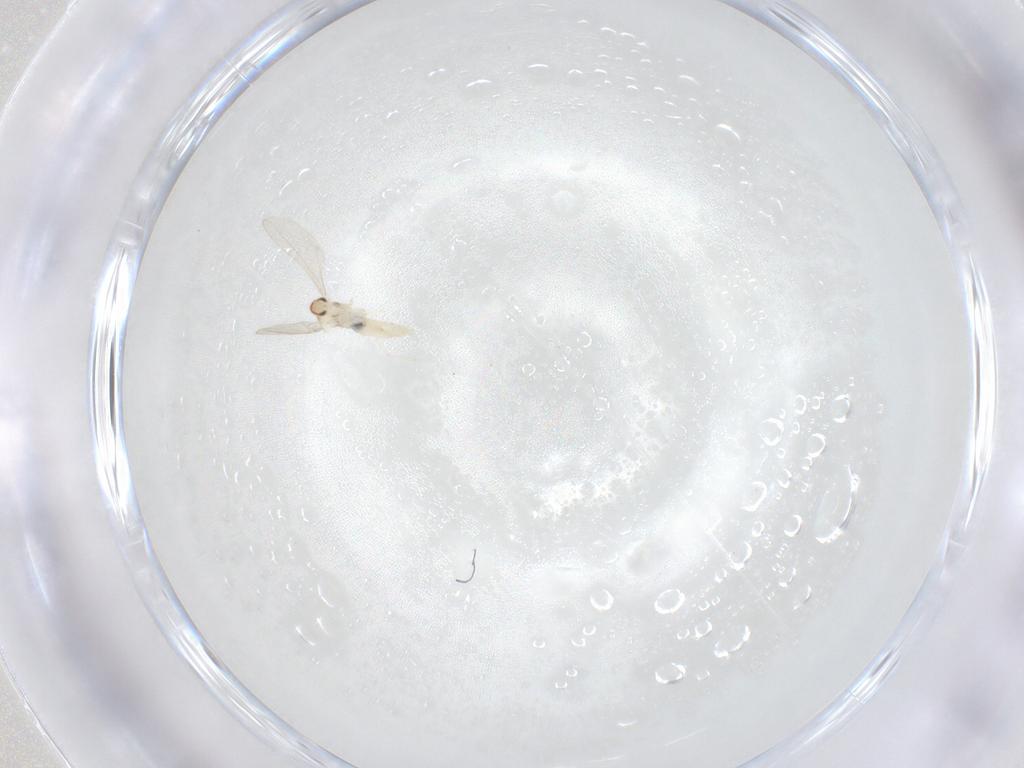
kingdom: Animalia
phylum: Arthropoda
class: Insecta
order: Diptera
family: Cecidomyiidae
